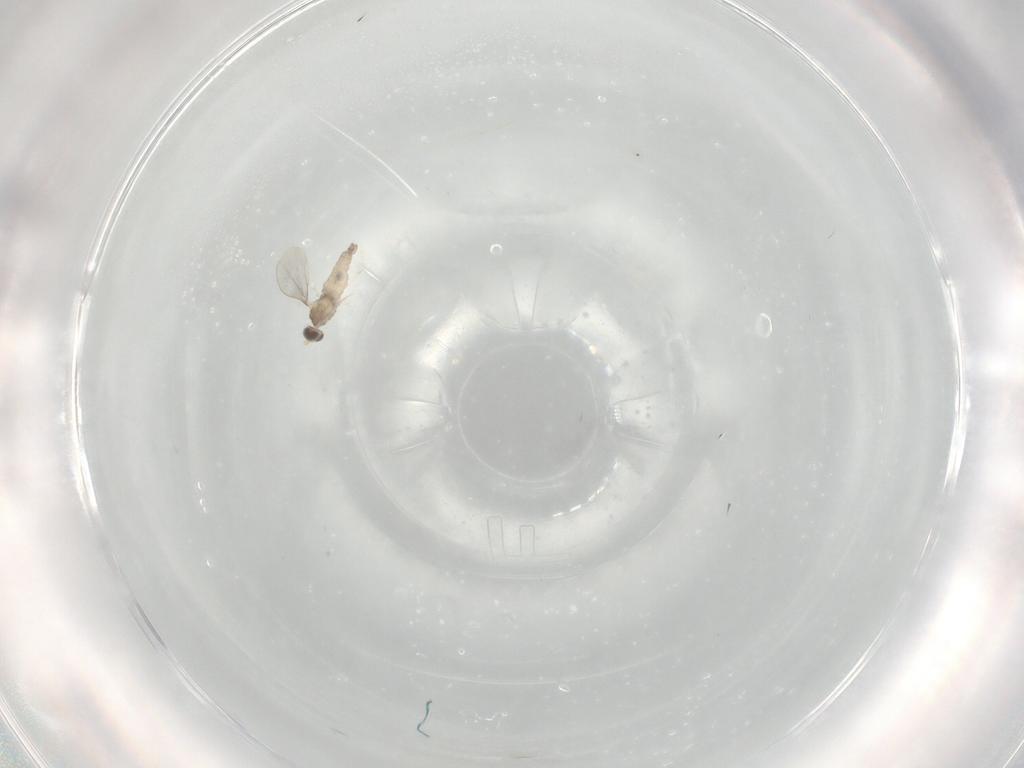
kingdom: Animalia
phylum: Arthropoda
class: Insecta
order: Diptera
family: Cecidomyiidae
